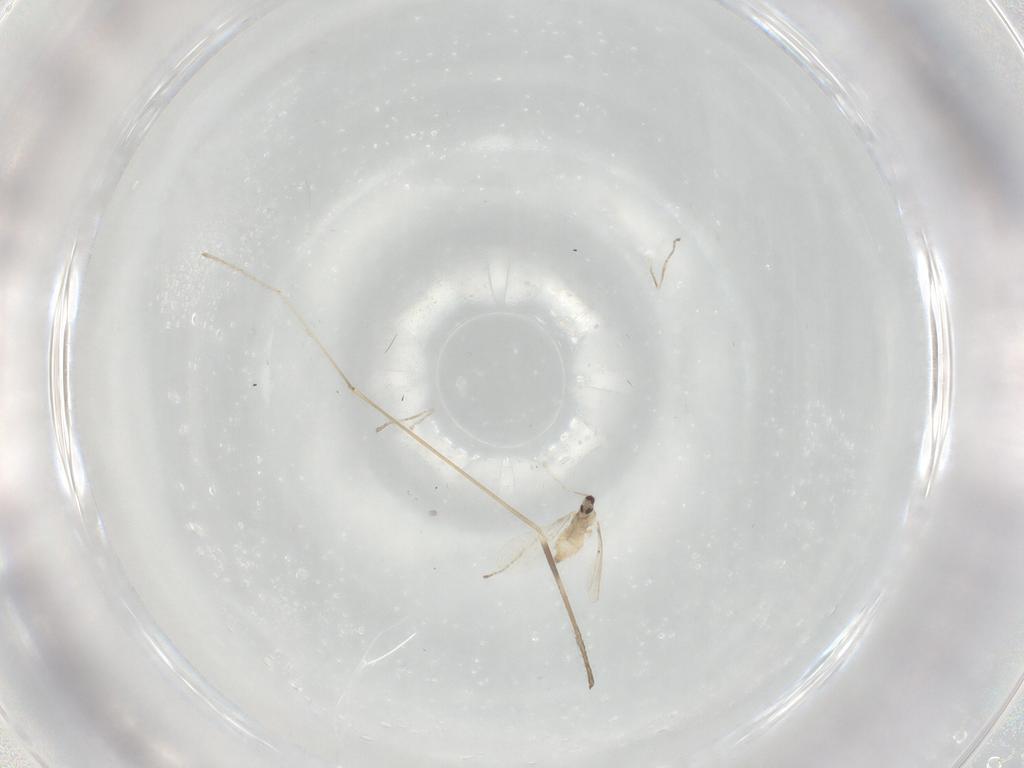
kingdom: Animalia
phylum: Arthropoda
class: Insecta
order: Diptera
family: Cecidomyiidae
